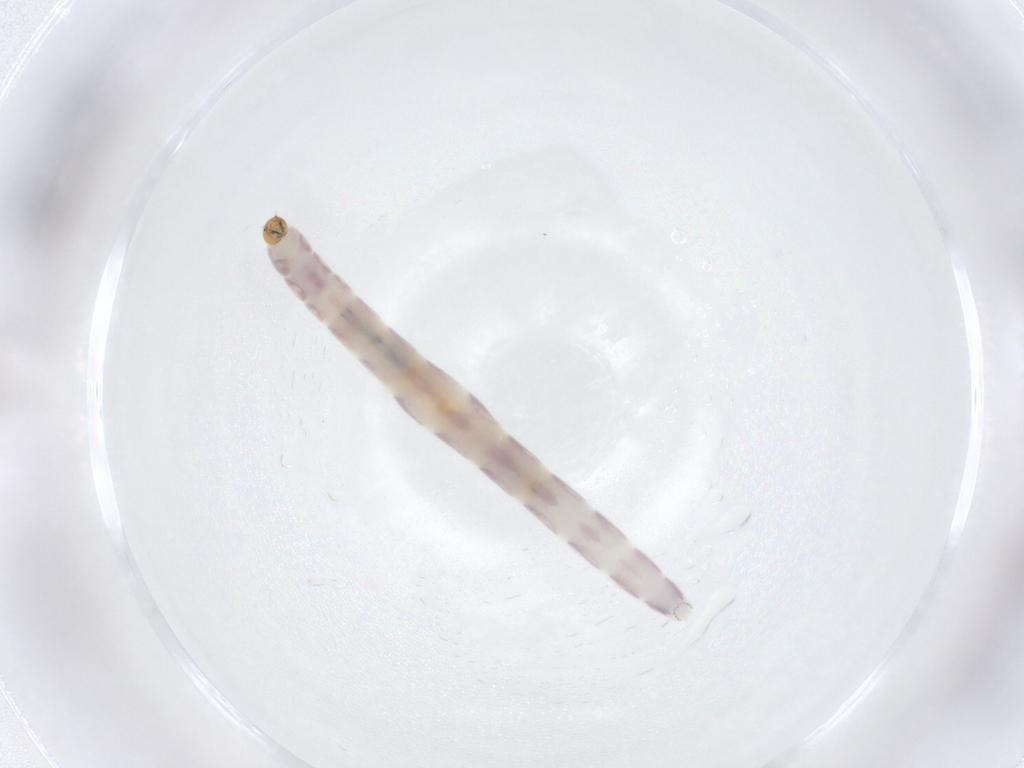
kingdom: Animalia
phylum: Arthropoda
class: Insecta
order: Diptera
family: Chironomidae
